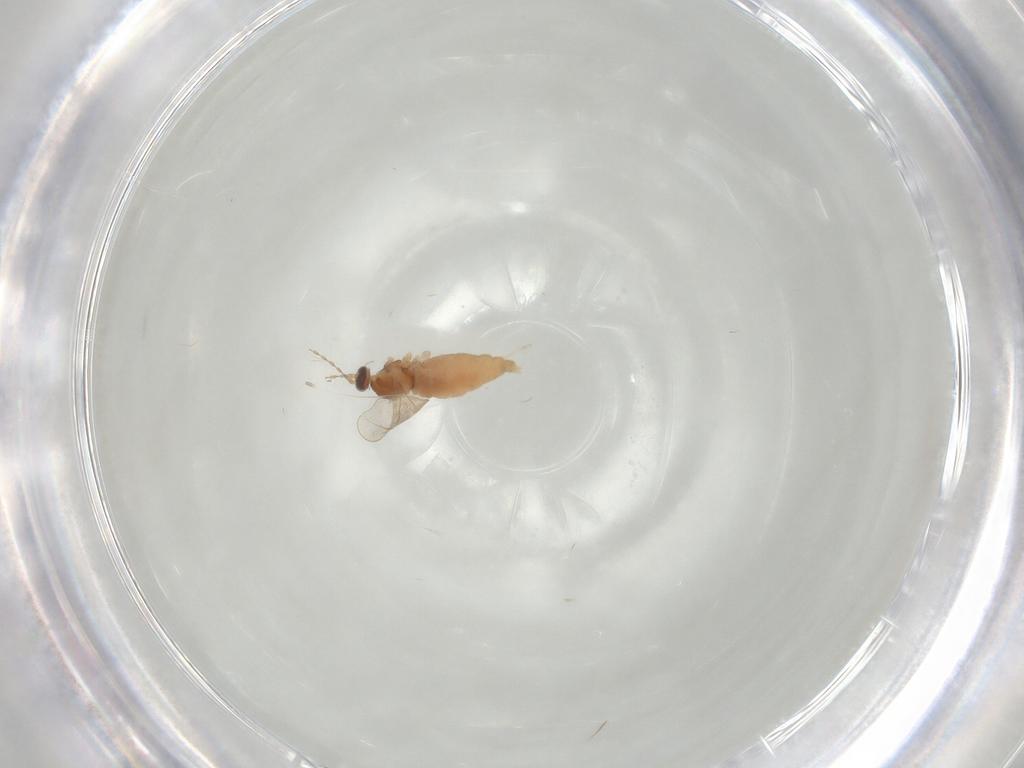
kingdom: Animalia
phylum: Arthropoda
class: Insecta
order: Diptera
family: Cecidomyiidae
